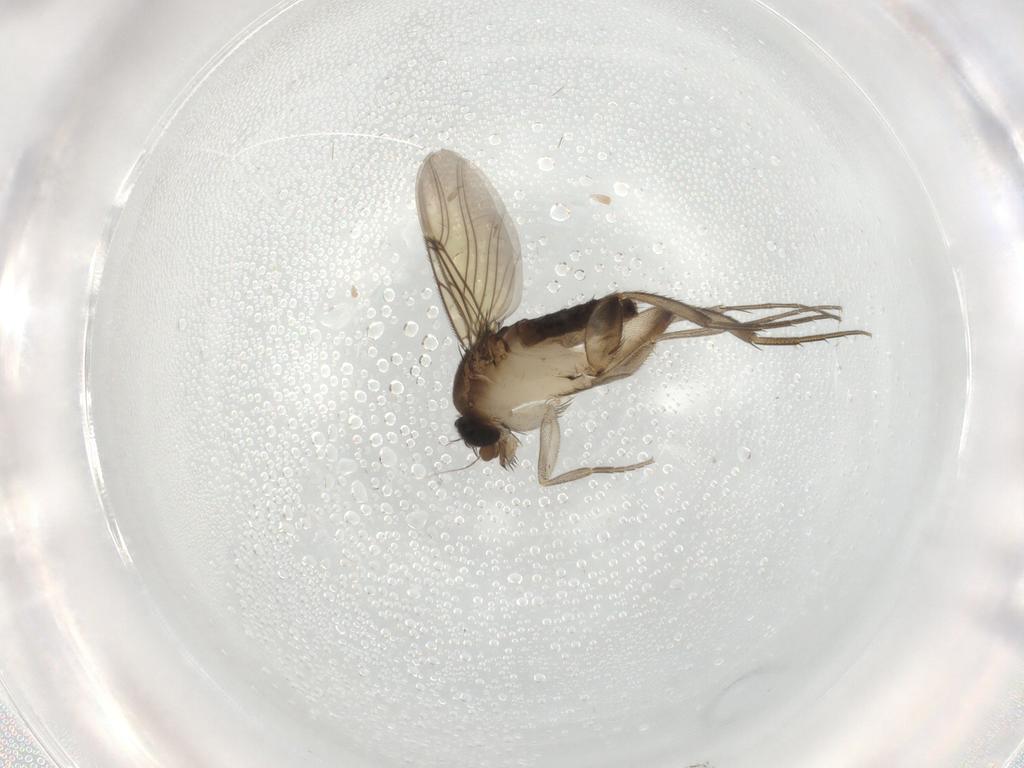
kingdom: Animalia
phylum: Arthropoda
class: Insecta
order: Diptera
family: Phoridae
